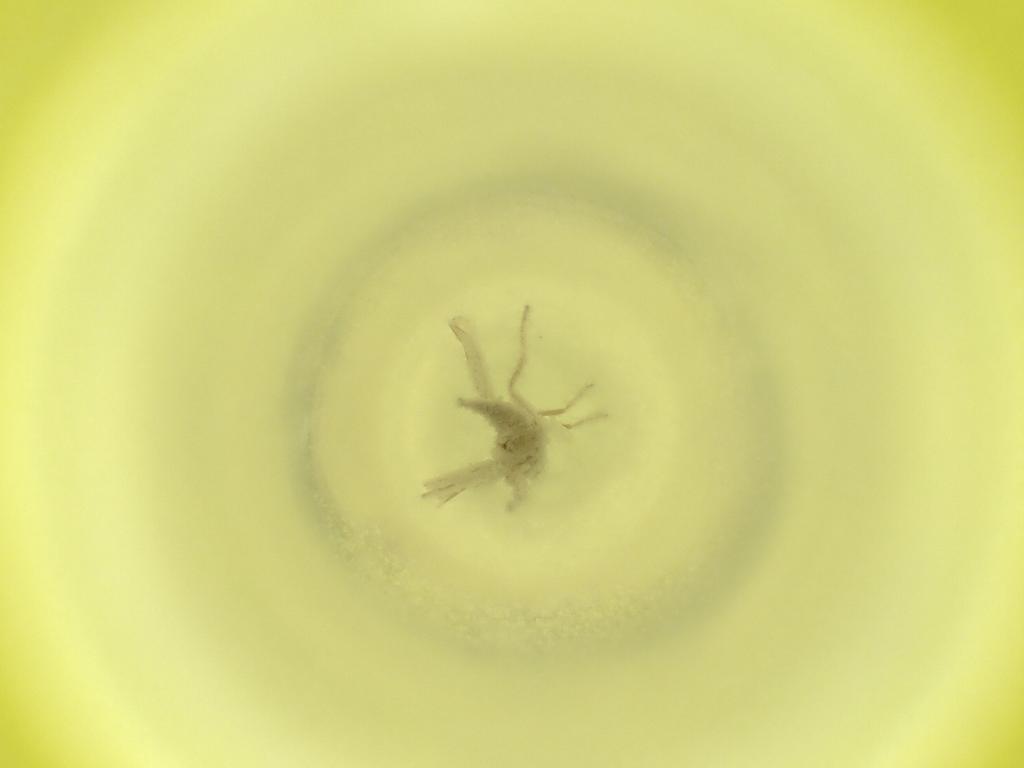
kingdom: Animalia
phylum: Arthropoda
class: Insecta
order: Diptera
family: Cecidomyiidae
